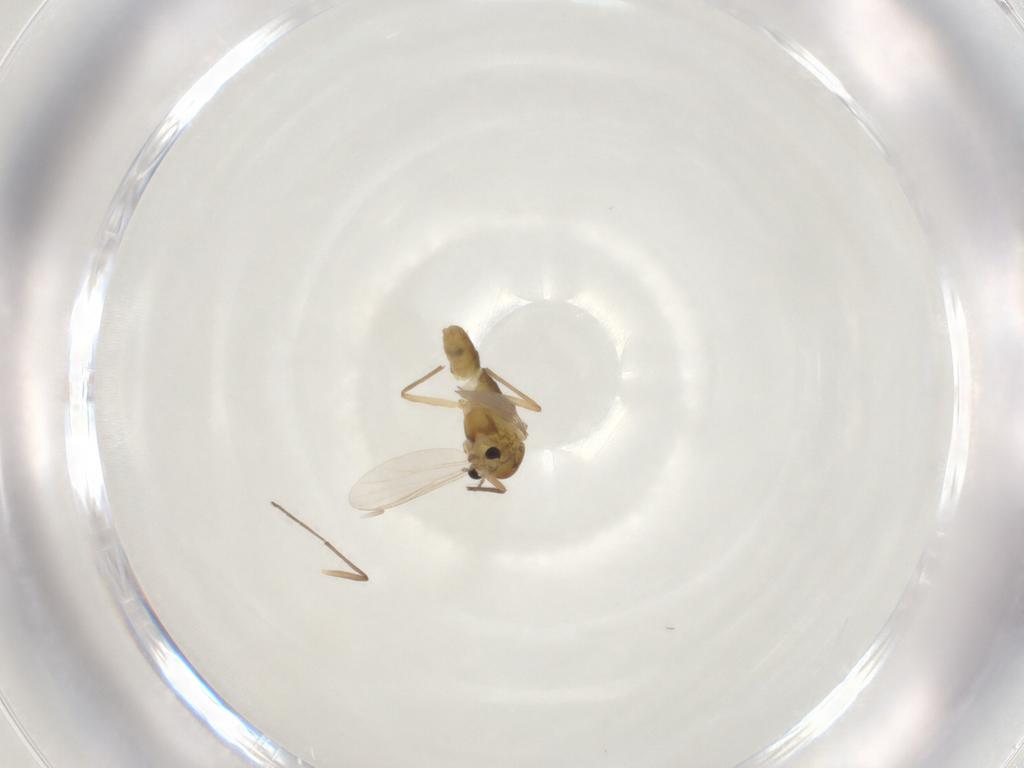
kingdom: Animalia
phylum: Arthropoda
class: Insecta
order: Diptera
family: Chironomidae
